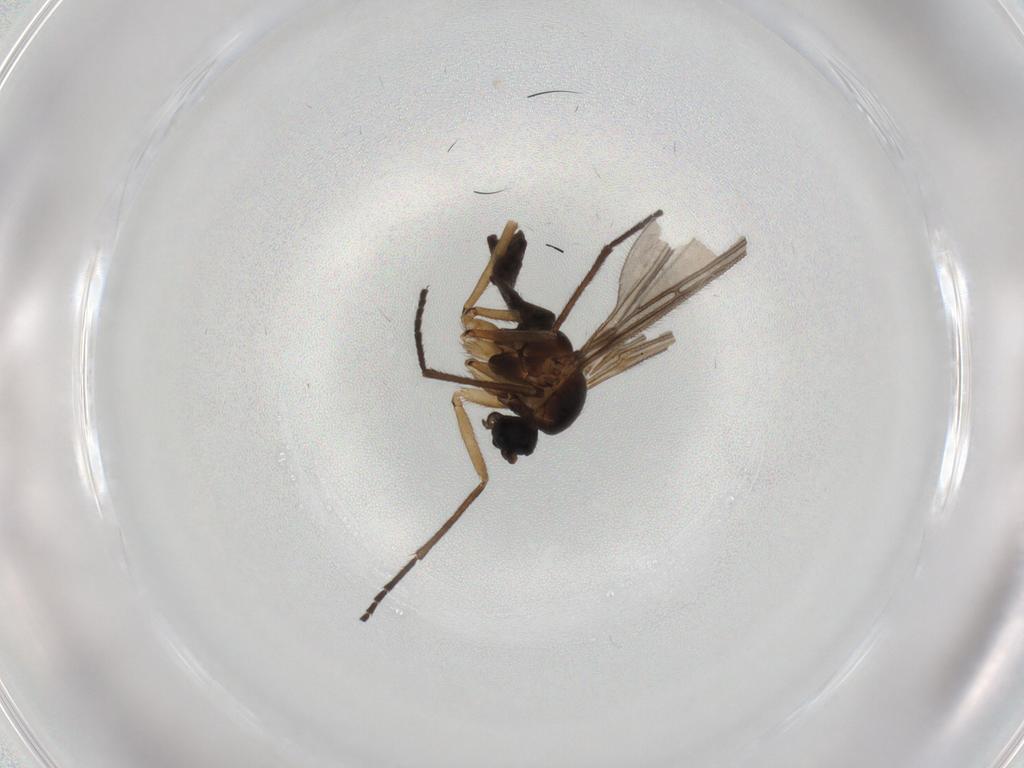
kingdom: Animalia
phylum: Arthropoda
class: Insecta
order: Diptera
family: Sciaridae
